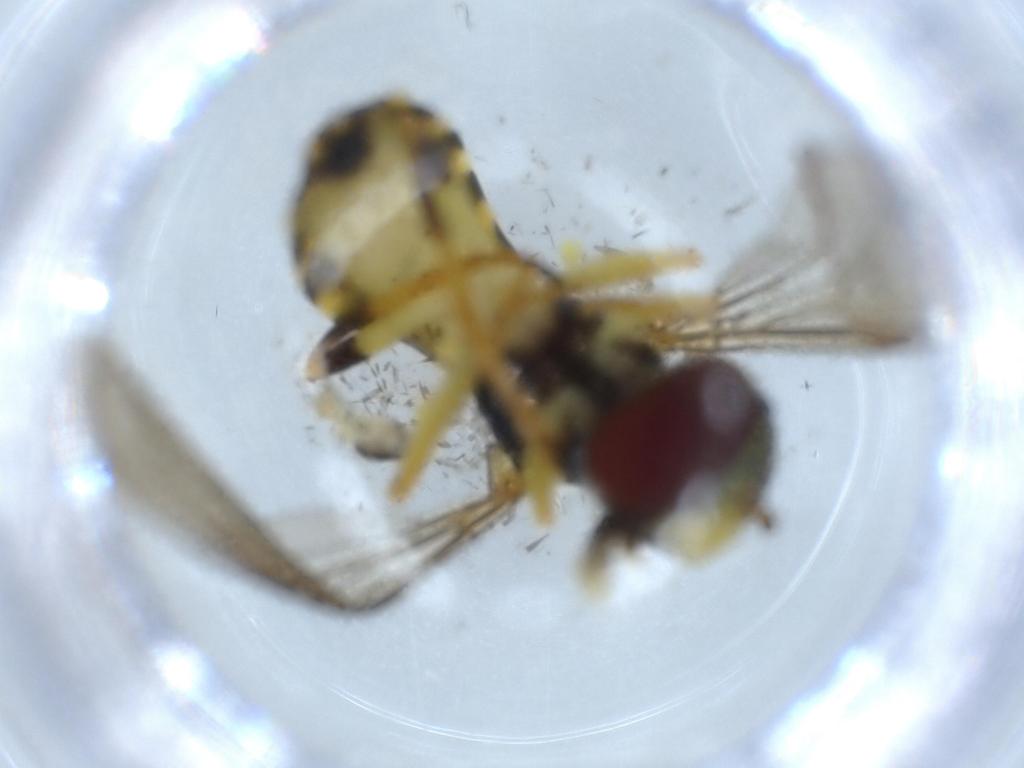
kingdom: Animalia
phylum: Arthropoda
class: Insecta
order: Diptera
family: Syrphidae
